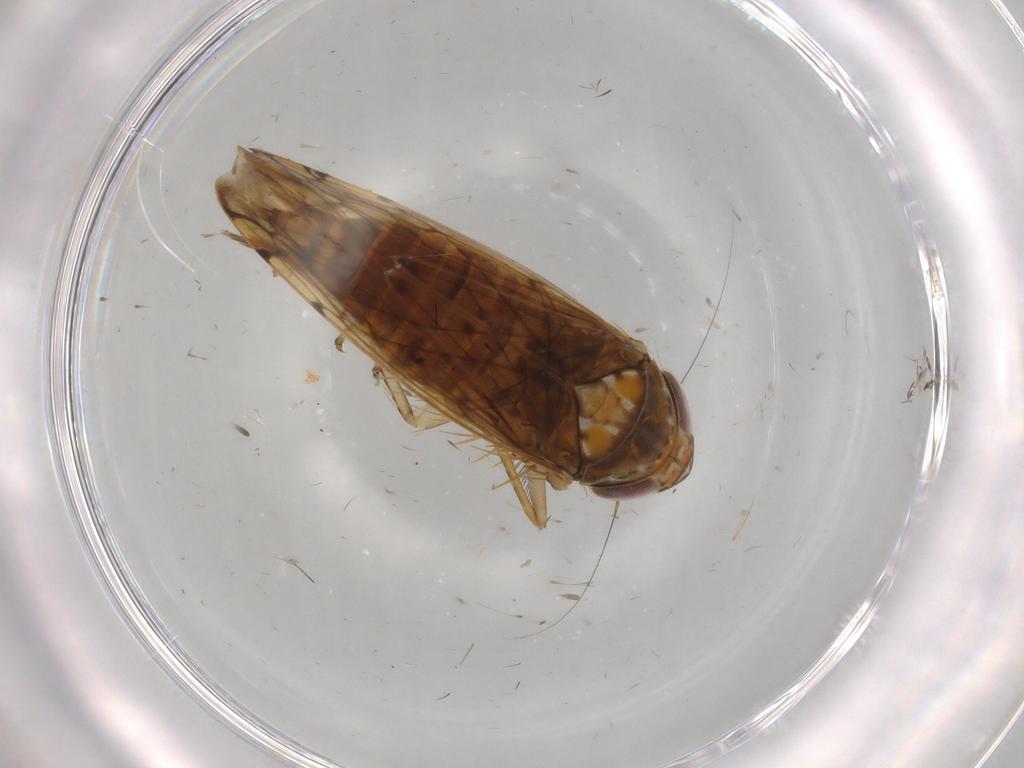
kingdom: Animalia
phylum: Arthropoda
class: Insecta
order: Hemiptera
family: Cicadellidae
